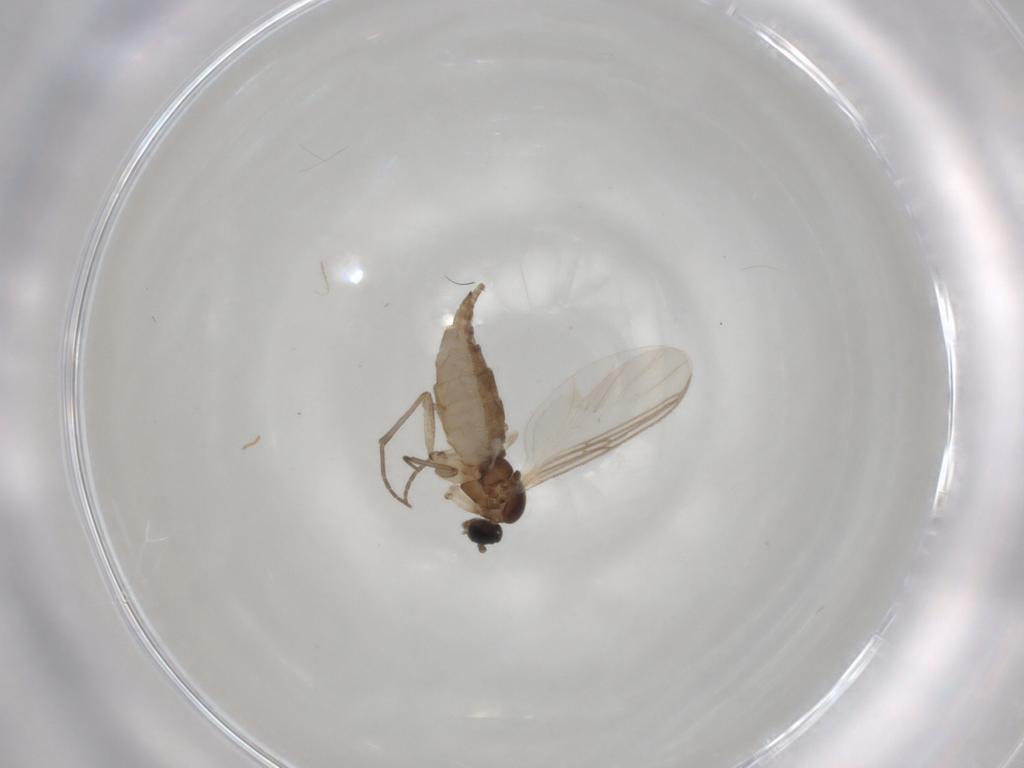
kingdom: Animalia
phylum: Arthropoda
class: Insecta
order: Diptera
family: Sciaridae
